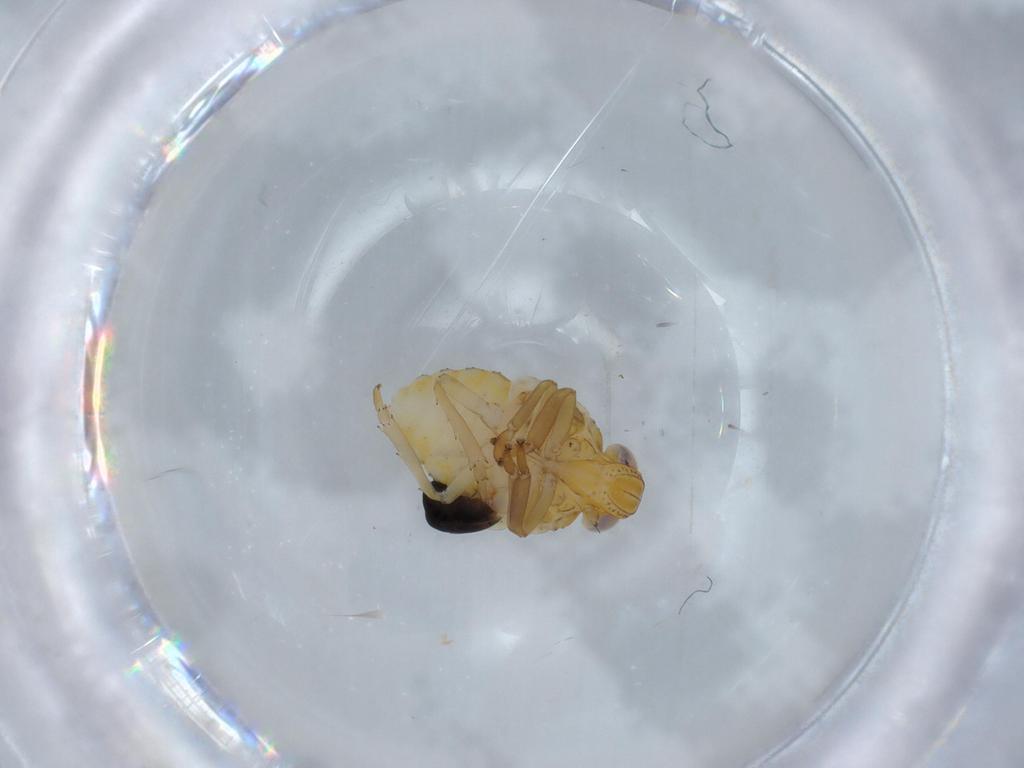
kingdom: Animalia
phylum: Arthropoda
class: Insecta
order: Hemiptera
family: Issidae
